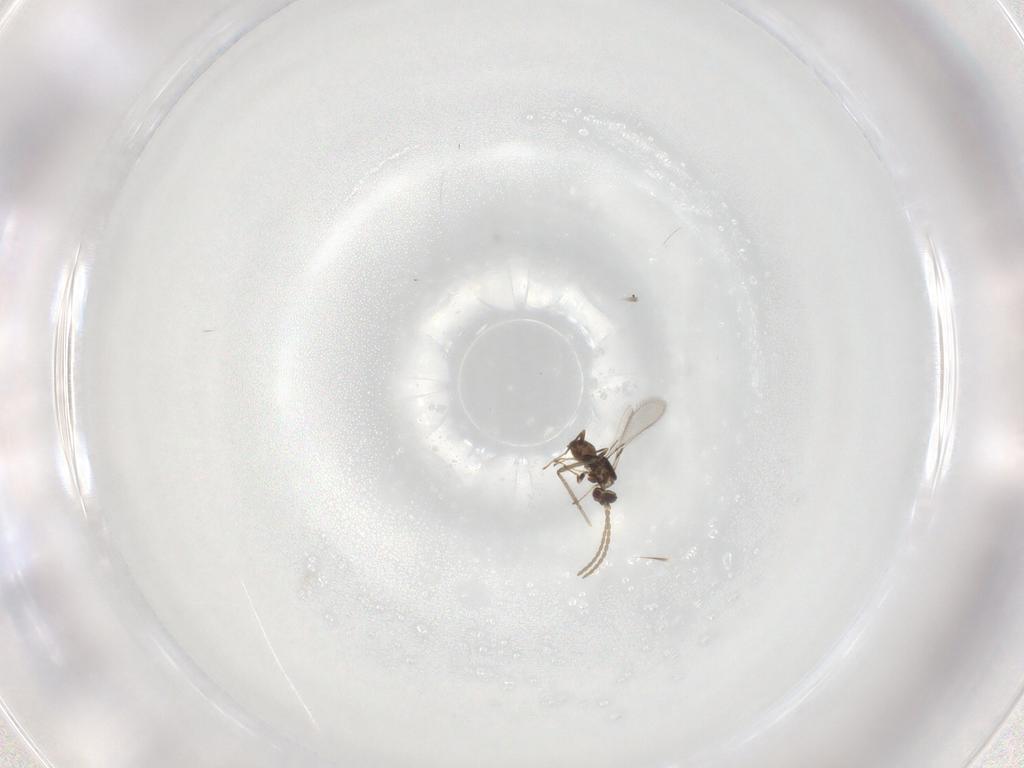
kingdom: Animalia
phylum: Arthropoda
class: Insecta
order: Hymenoptera
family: Mymaridae
